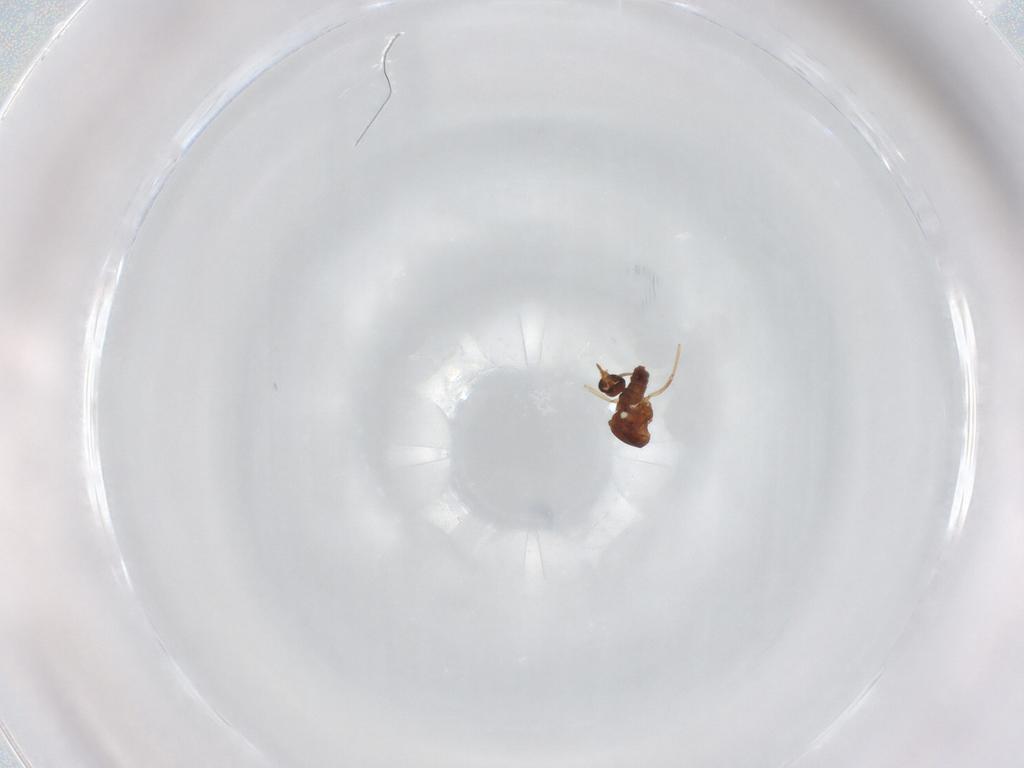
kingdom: Animalia
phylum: Arthropoda
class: Insecta
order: Diptera
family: Ceratopogonidae
